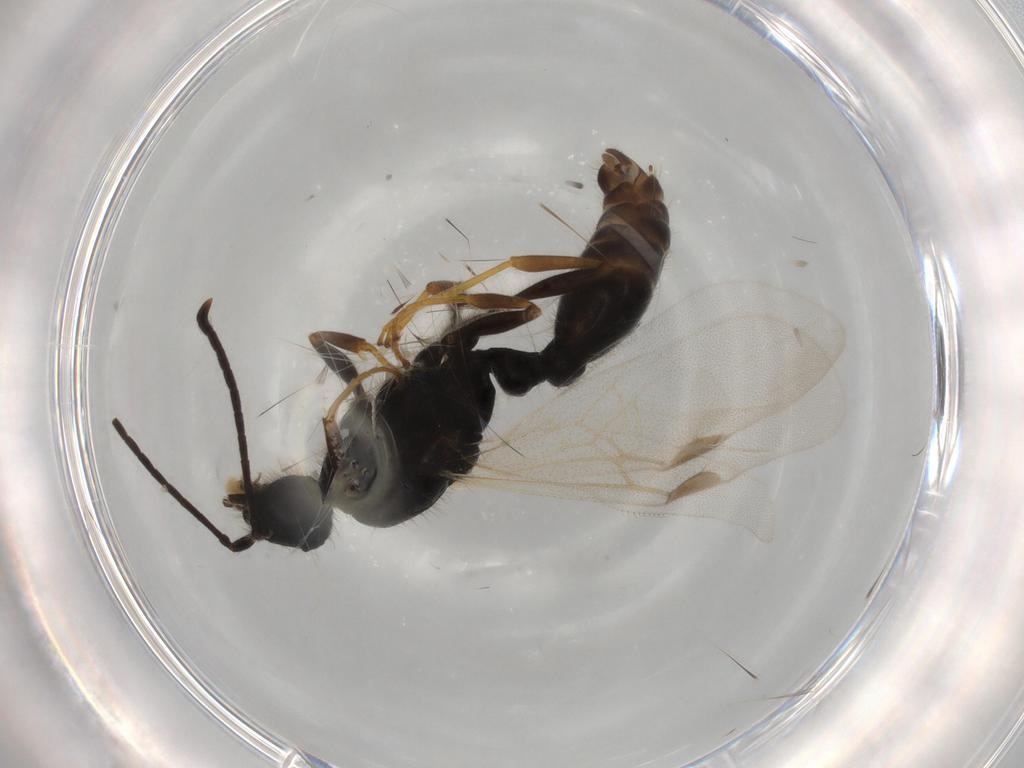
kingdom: Animalia
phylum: Arthropoda
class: Insecta
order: Hymenoptera
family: Formicidae
